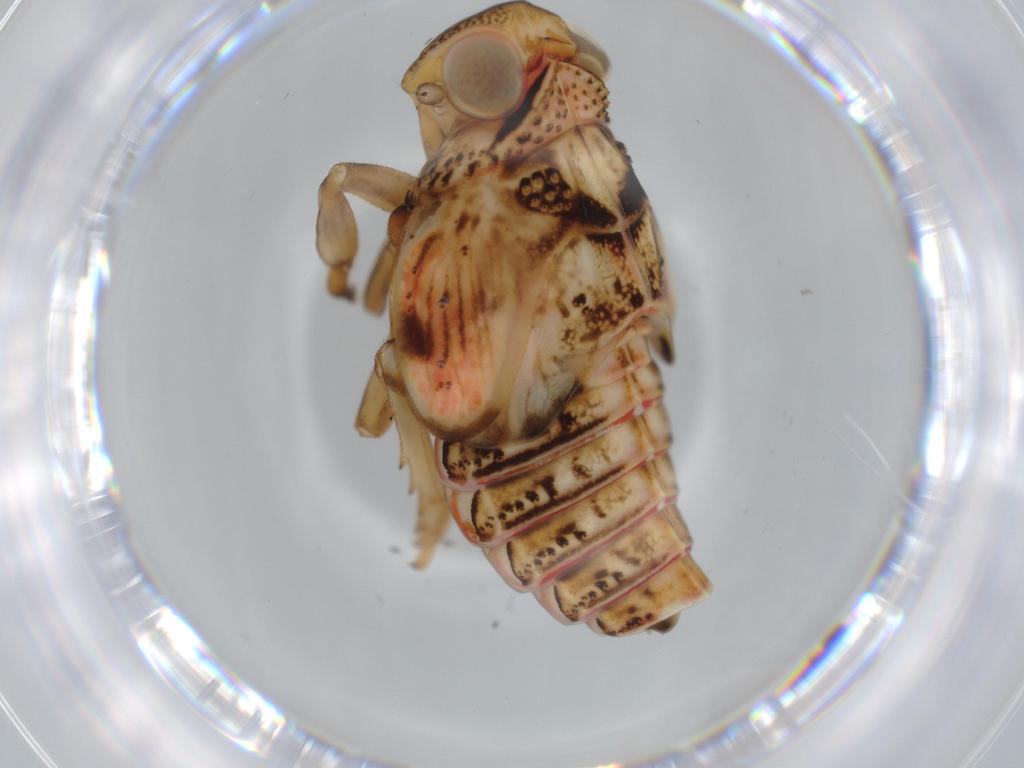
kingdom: Animalia
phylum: Arthropoda
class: Insecta
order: Hemiptera
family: Issidae
